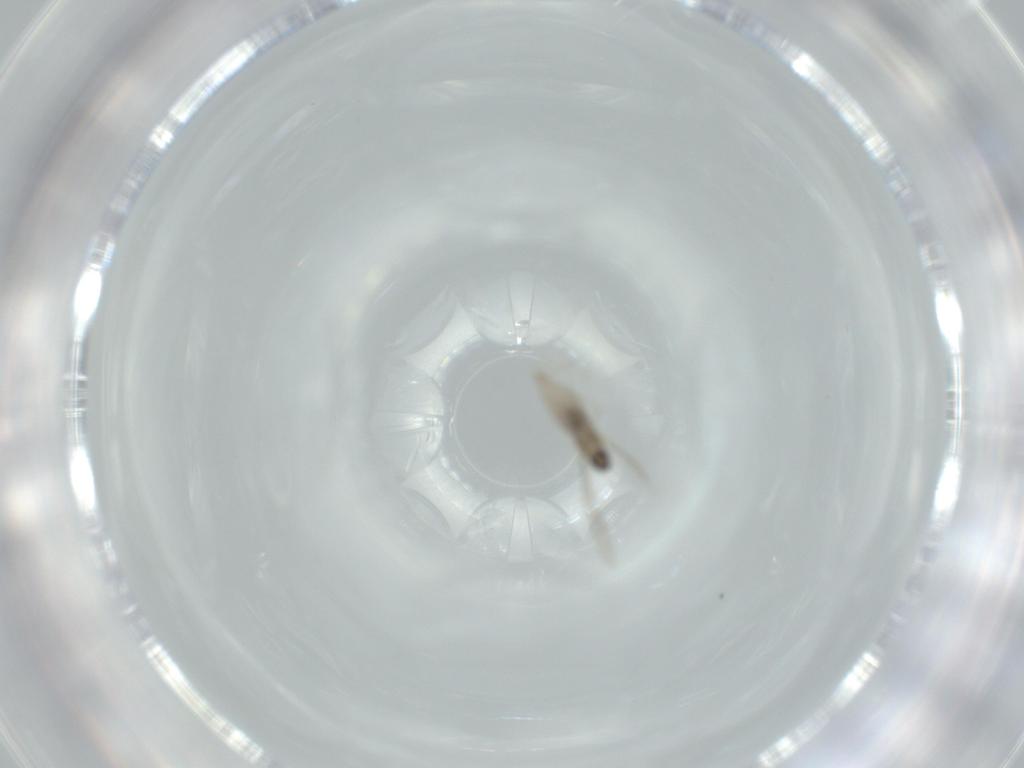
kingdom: Animalia
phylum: Arthropoda
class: Insecta
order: Diptera
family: Cecidomyiidae
